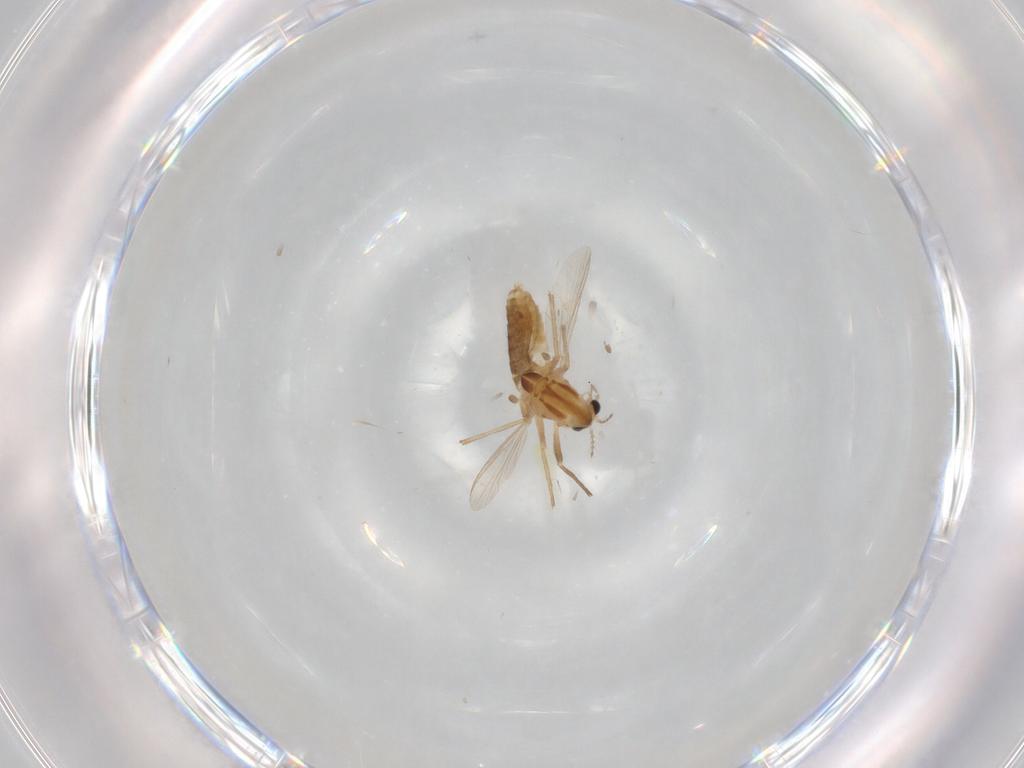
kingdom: Animalia
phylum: Arthropoda
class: Insecta
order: Diptera
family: Chironomidae
